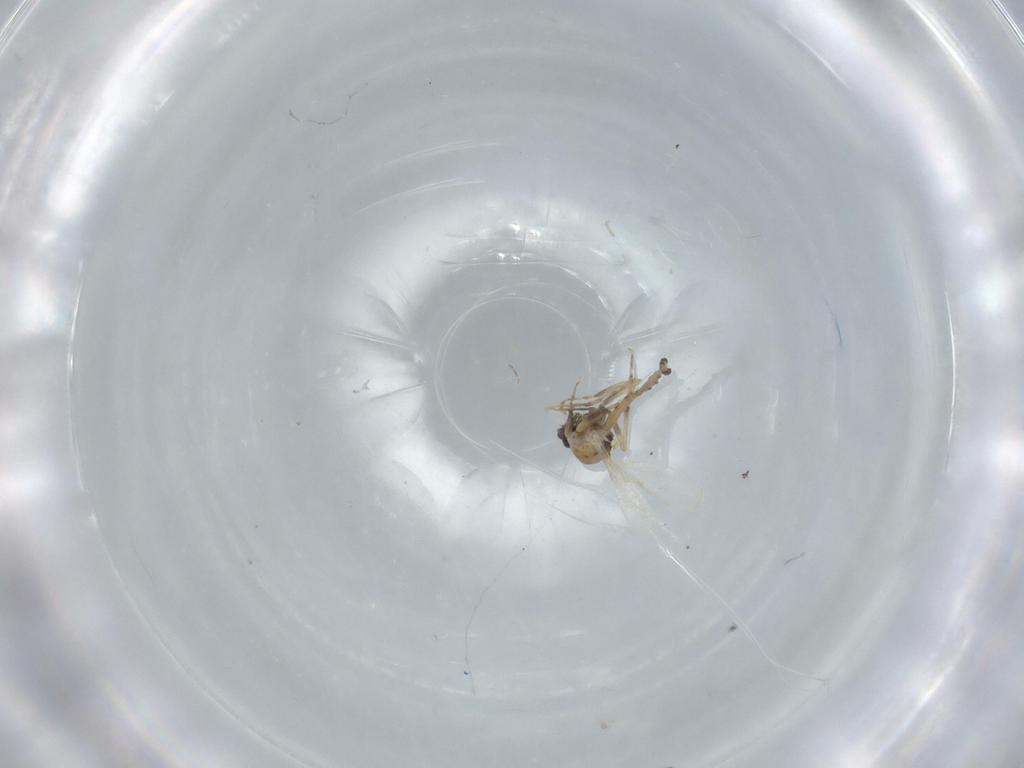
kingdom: Animalia
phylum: Arthropoda
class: Insecta
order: Diptera
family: Ceratopogonidae
